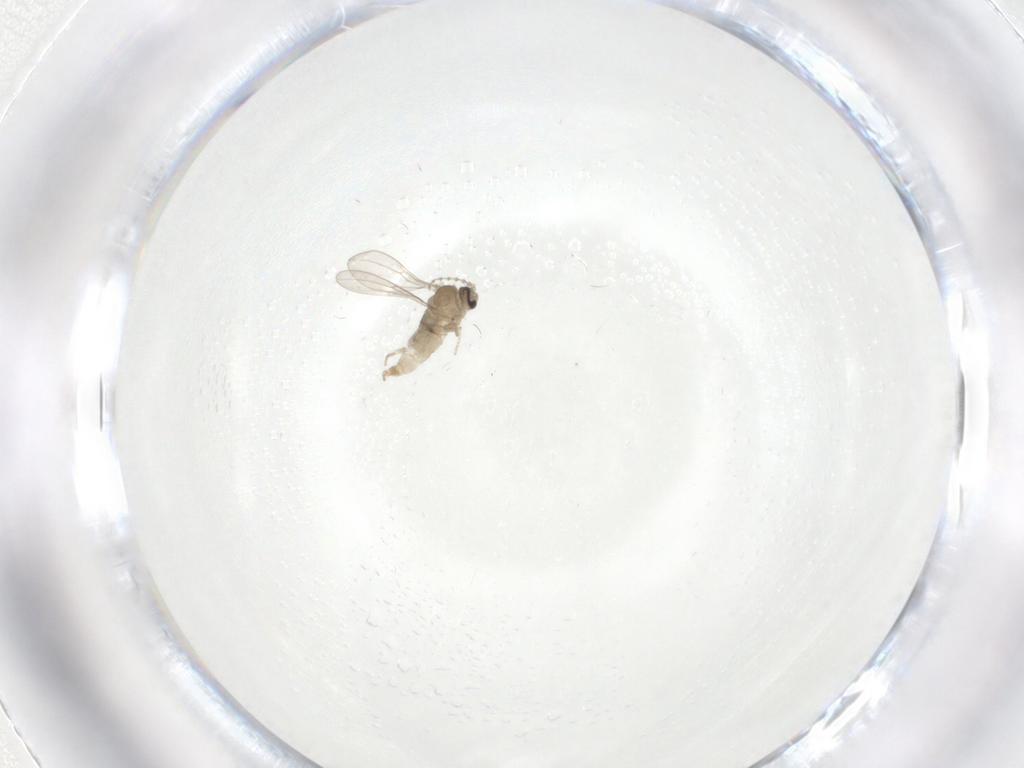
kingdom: Animalia
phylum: Arthropoda
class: Insecta
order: Diptera
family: Cecidomyiidae
